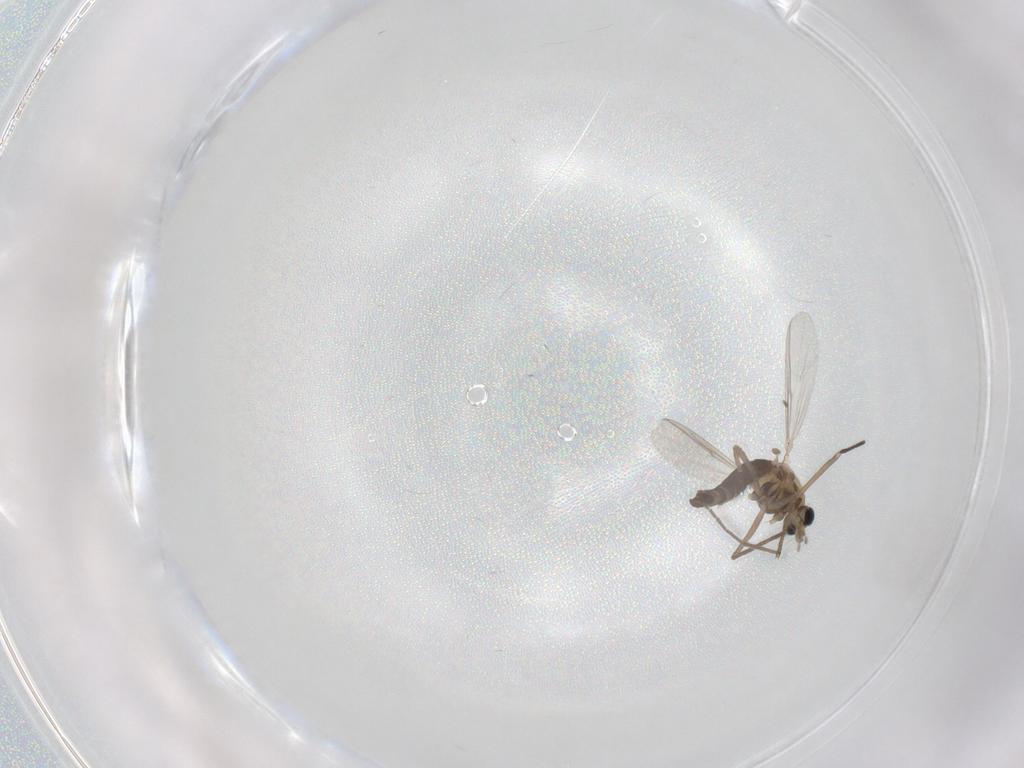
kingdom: Animalia
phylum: Arthropoda
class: Insecta
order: Diptera
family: Chironomidae
